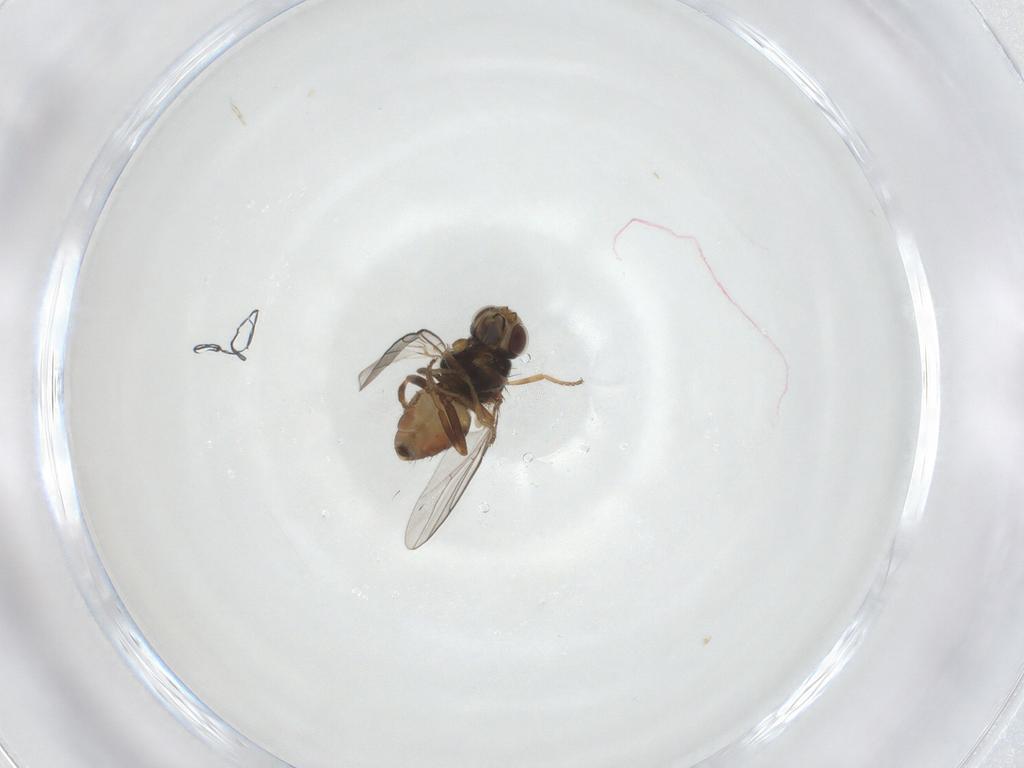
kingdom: Animalia
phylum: Arthropoda
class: Insecta
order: Diptera
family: Chloropidae
